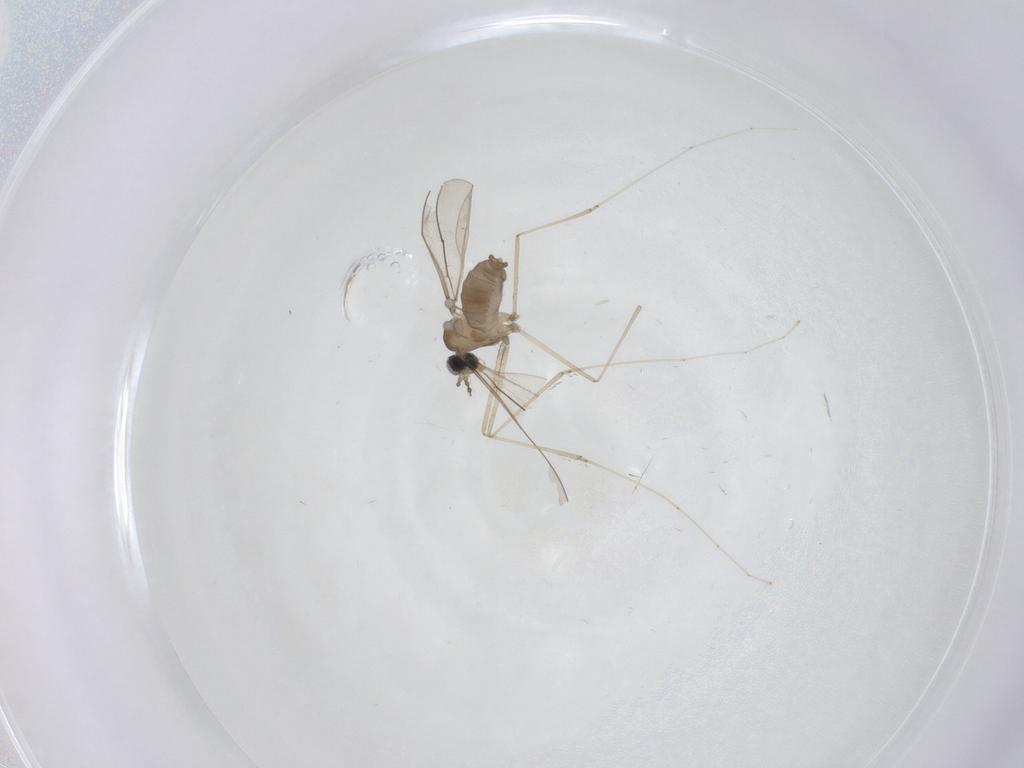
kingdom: Animalia
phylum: Arthropoda
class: Insecta
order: Diptera
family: Cecidomyiidae
